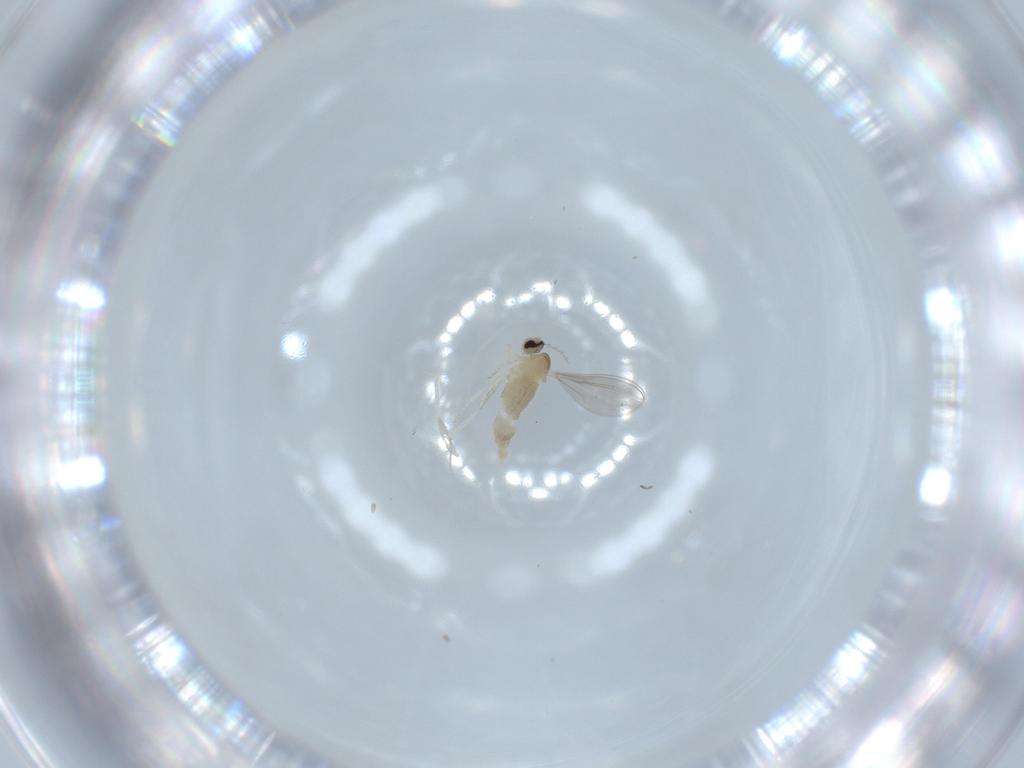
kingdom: Animalia
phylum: Arthropoda
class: Insecta
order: Diptera
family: Cecidomyiidae
